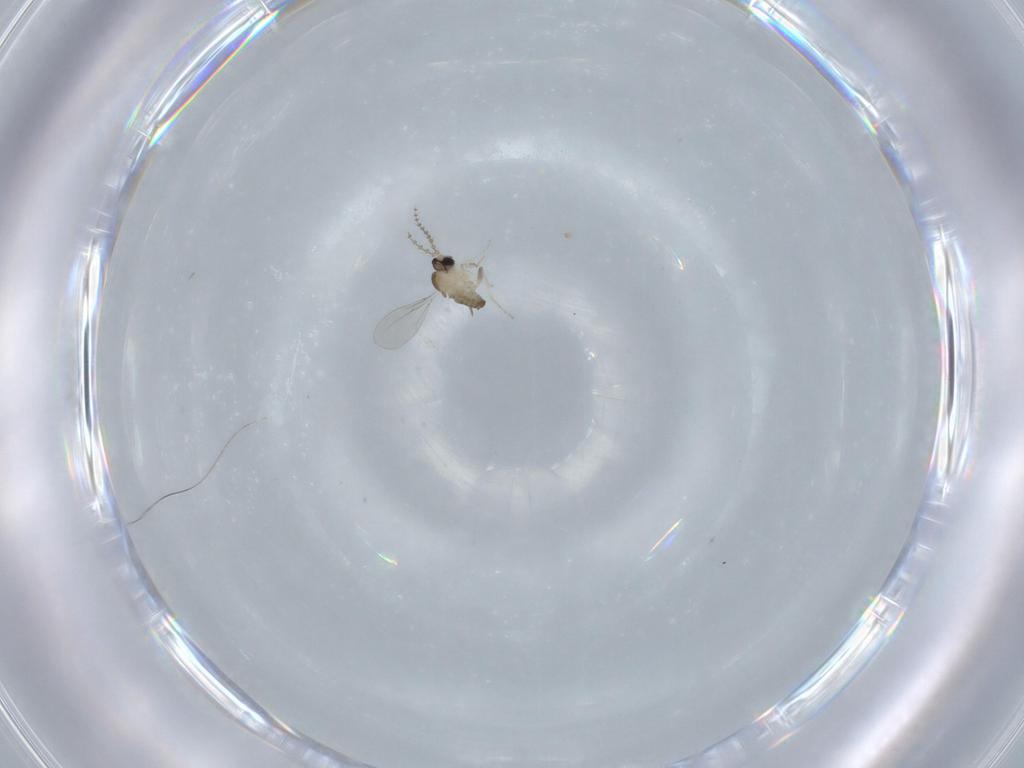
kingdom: Animalia
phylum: Arthropoda
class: Insecta
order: Diptera
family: Cecidomyiidae
